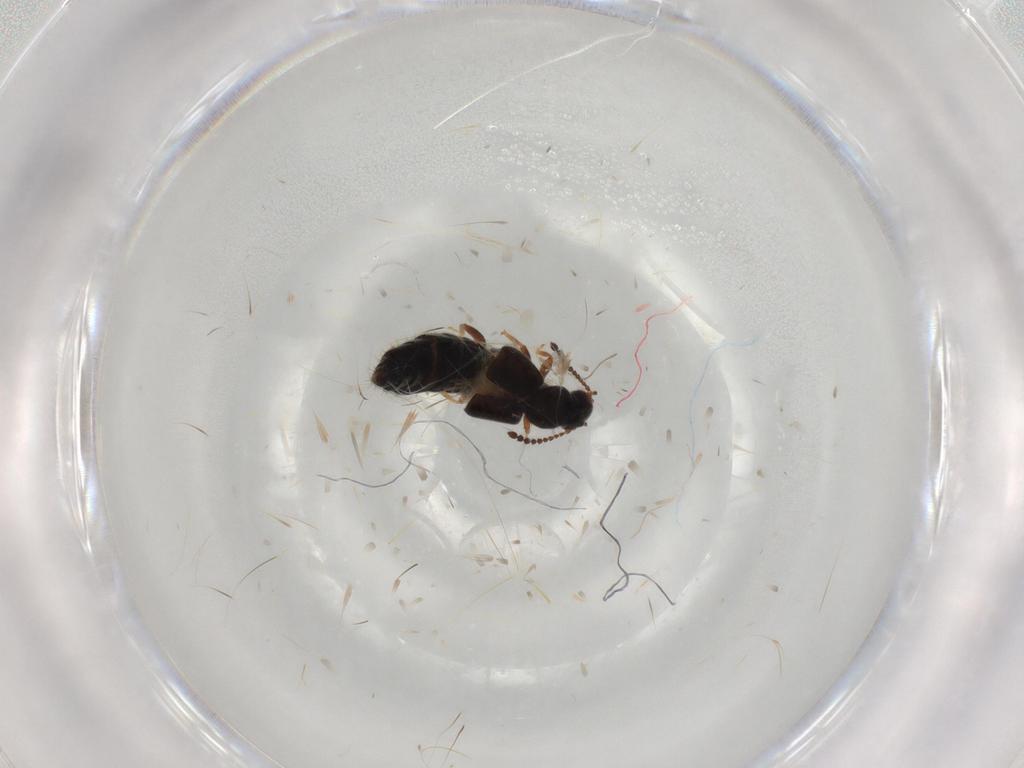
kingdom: Animalia
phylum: Arthropoda
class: Insecta
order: Coleoptera
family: Staphylinidae
